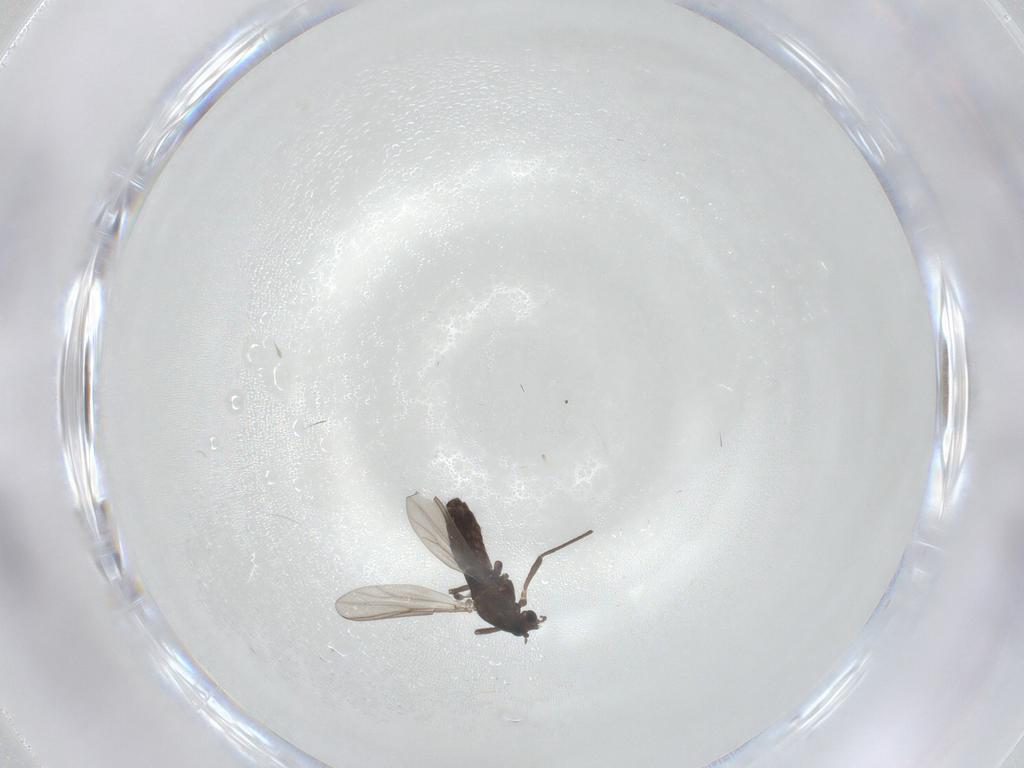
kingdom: Animalia
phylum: Arthropoda
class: Insecta
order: Diptera
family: Chironomidae
